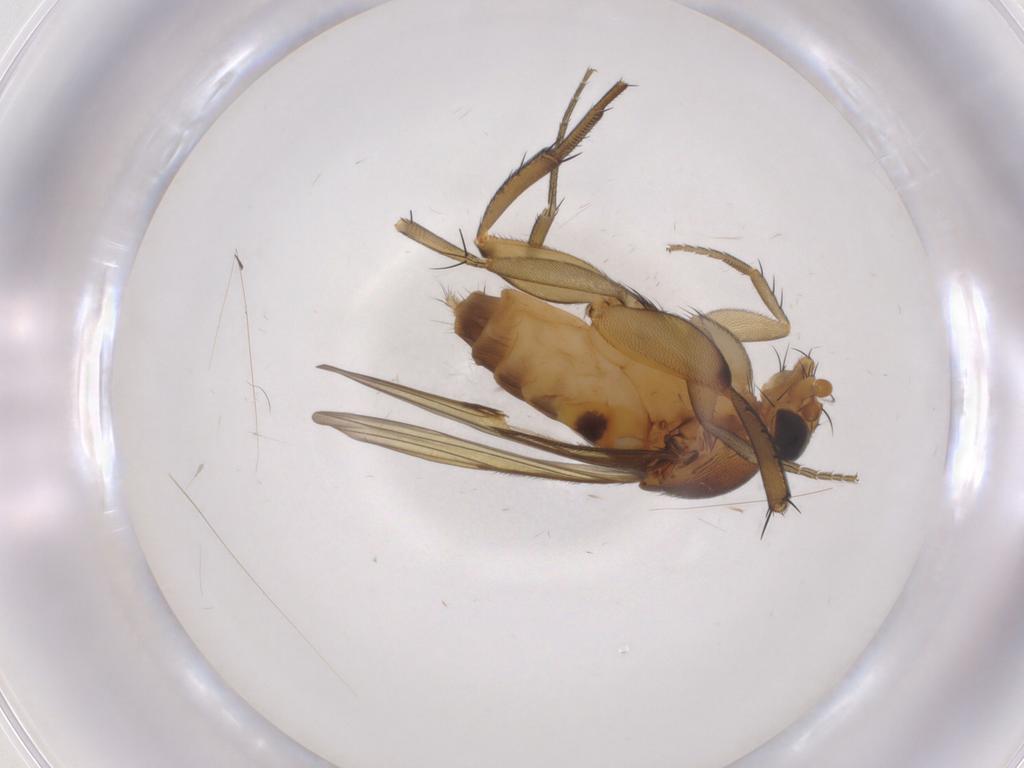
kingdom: Animalia
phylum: Arthropoda
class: Insecta
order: Diptera
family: Phoridae
